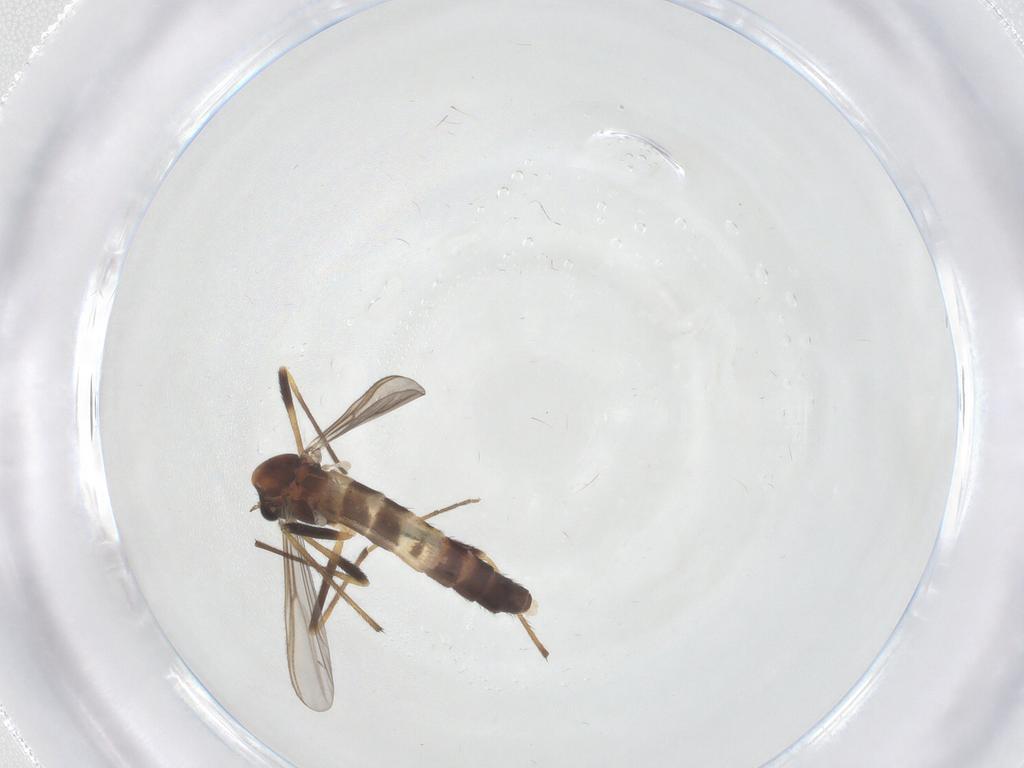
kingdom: Animalia
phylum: Arthropoda
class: Insecta
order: Diptera
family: Chironomidae
